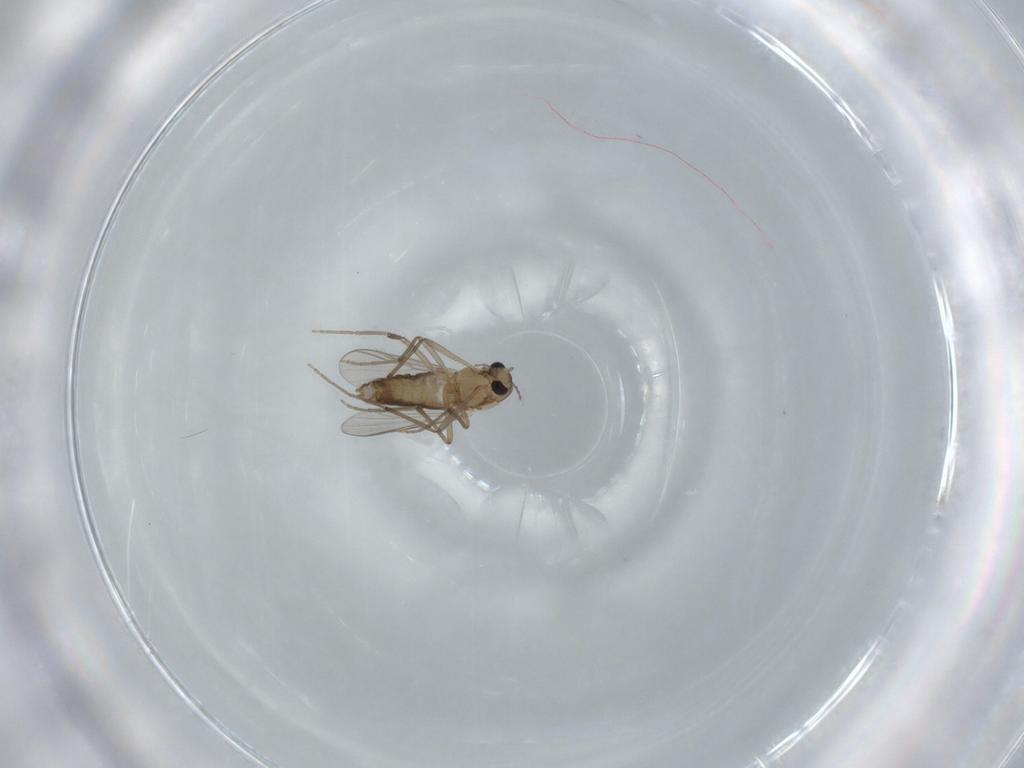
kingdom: Animalia
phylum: Arthropoda
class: Insecta
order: Diptera
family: Chironomidae
